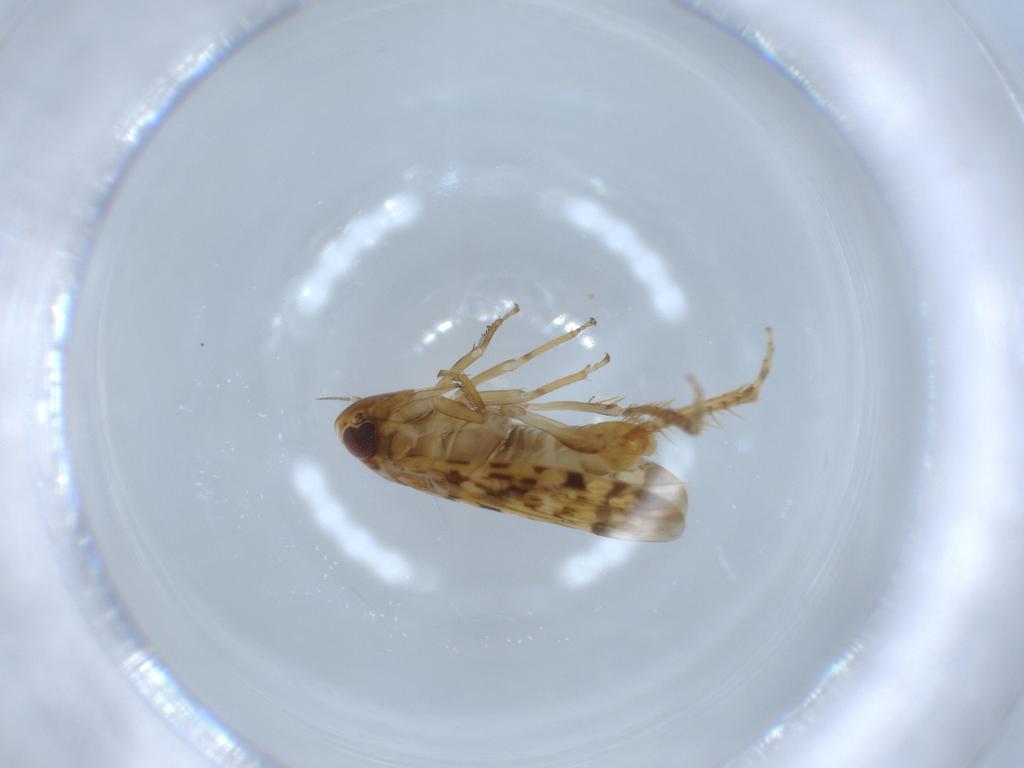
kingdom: Animalia
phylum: Arthropoda
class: Insecta
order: Hemiptera
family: Cicadellidae
